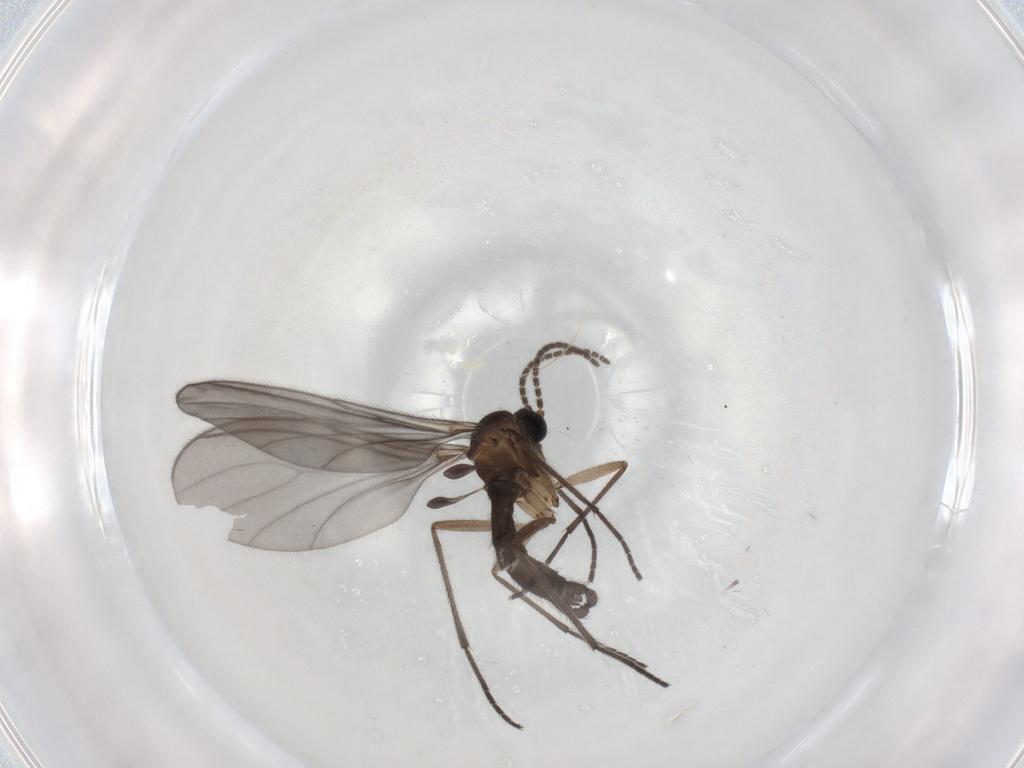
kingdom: Animalia
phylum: Arthropoda
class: Insecta
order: Diptera
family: Sciaridae
